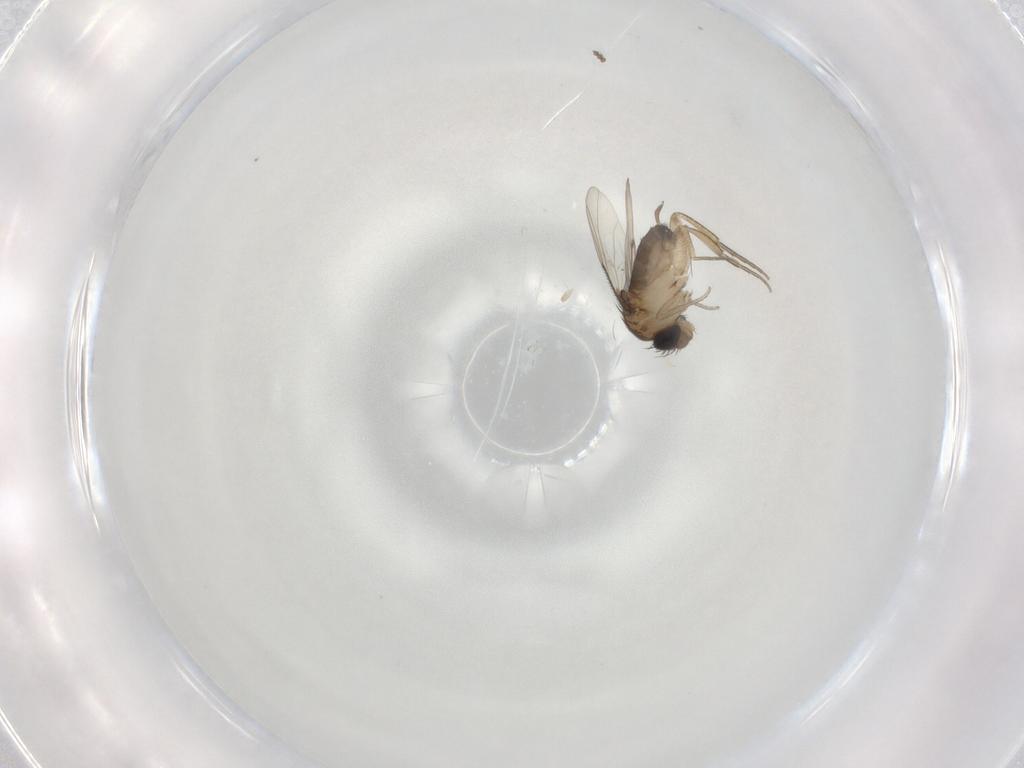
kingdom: Animalia
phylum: Arthropoda
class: Insecta
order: Diptera
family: Cecidomyiidae
